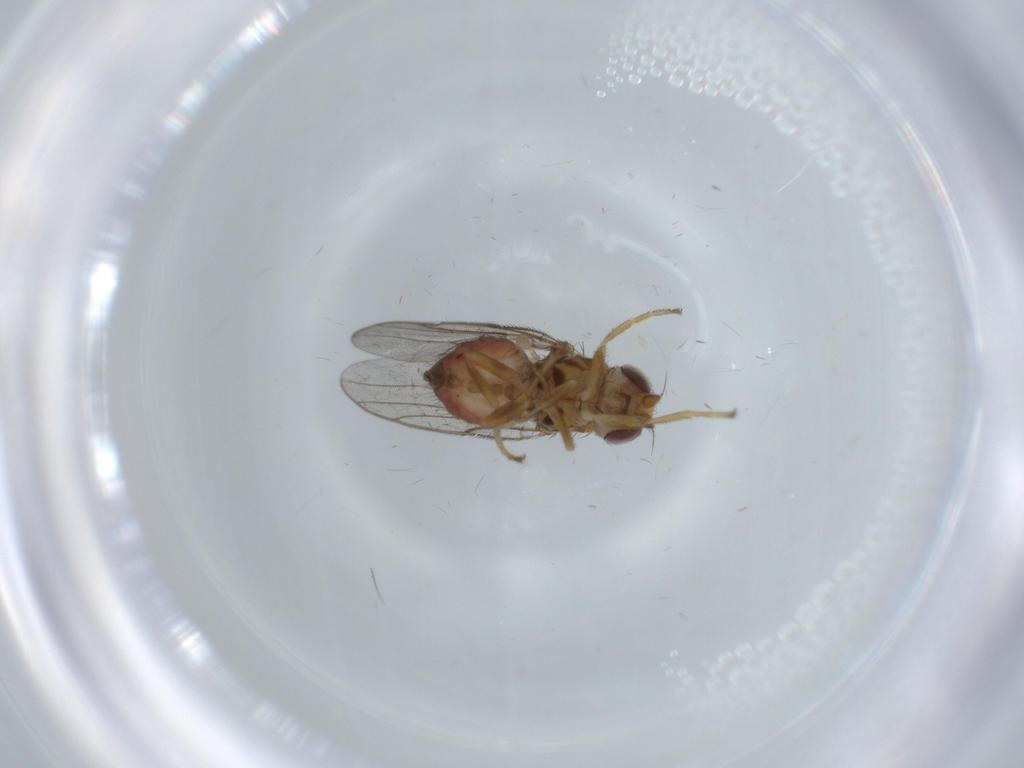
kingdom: Animalia
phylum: Arthropoda
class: Insecta
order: Diptera
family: Chloropidae
